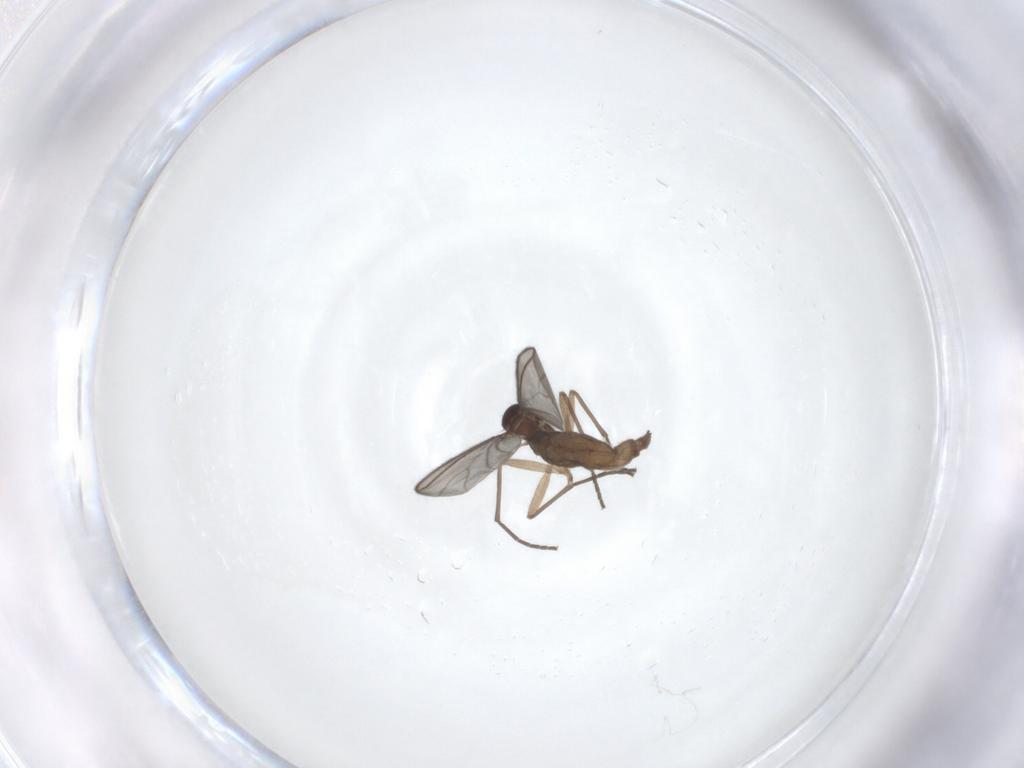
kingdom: Animalia
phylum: Arthropoda
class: Insecta
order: Diptera
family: Sciaridae
